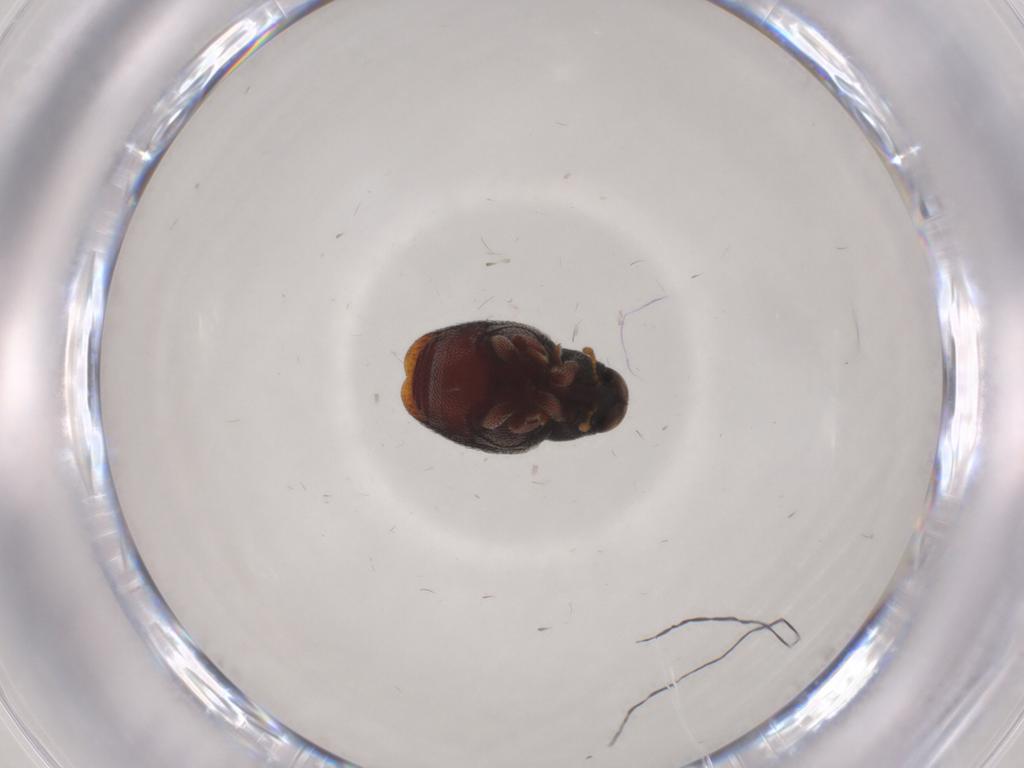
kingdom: Animalia
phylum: Arthropoda
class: Insecta
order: Coleoptera
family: Curculionidae
